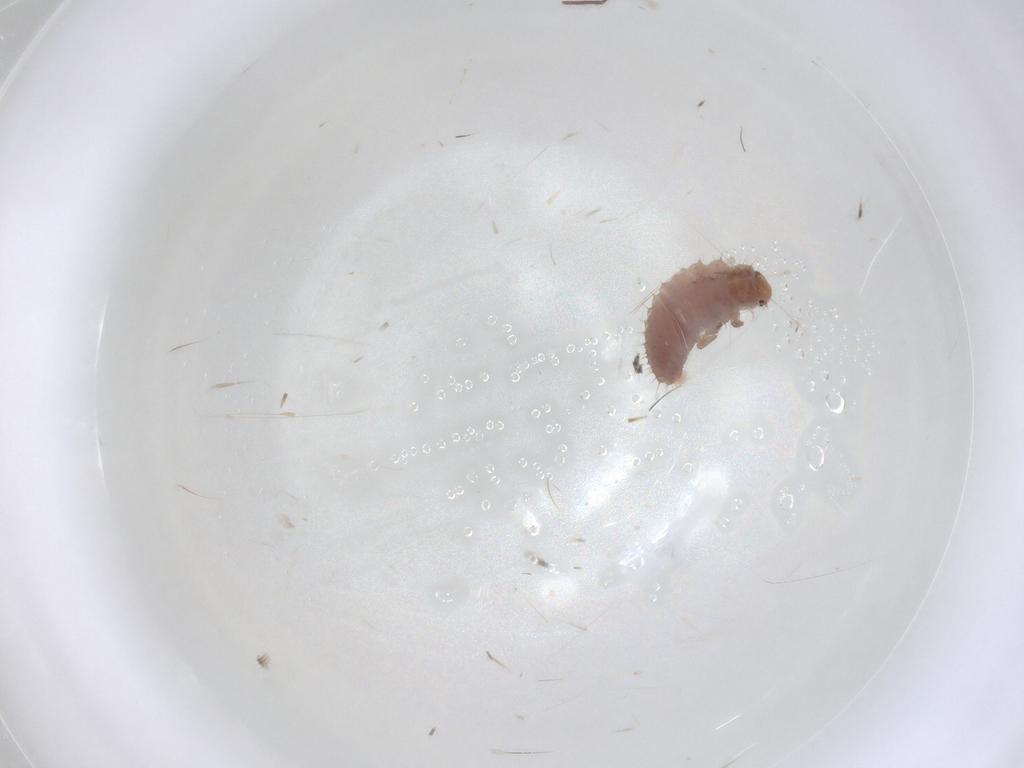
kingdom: Animalia
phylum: Arthropoda
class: Insecta
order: Coleoptera
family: Coccinellidae
